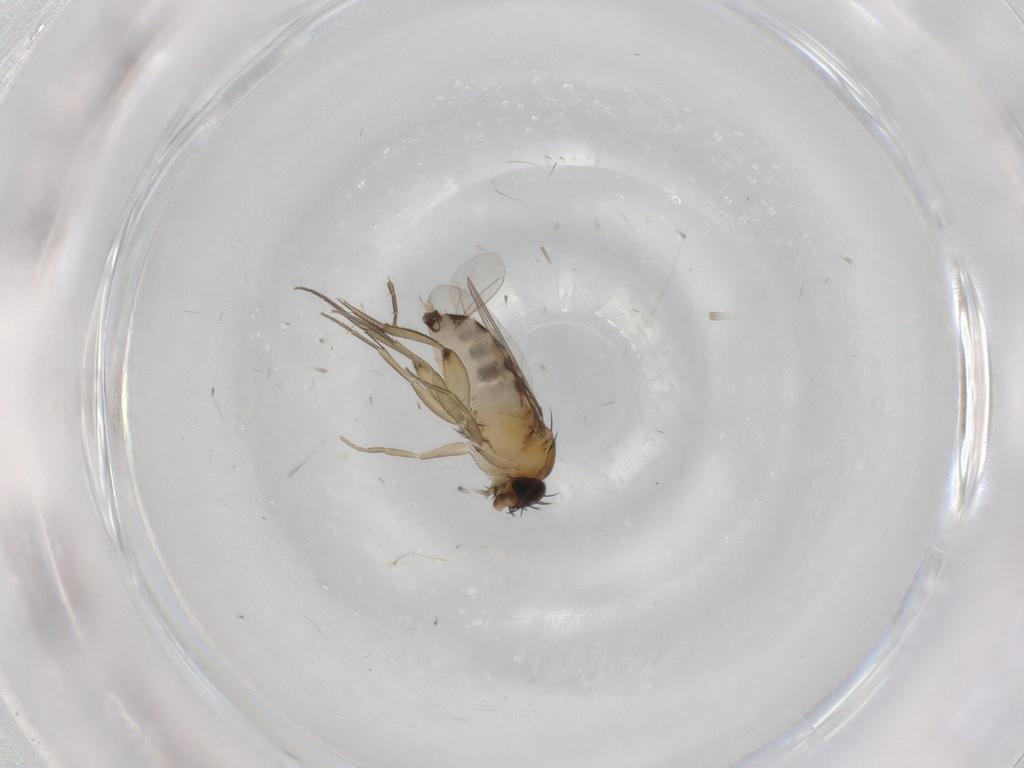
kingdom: Animalia
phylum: Arthropoda
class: Insecta
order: Diptera
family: Phoridae
